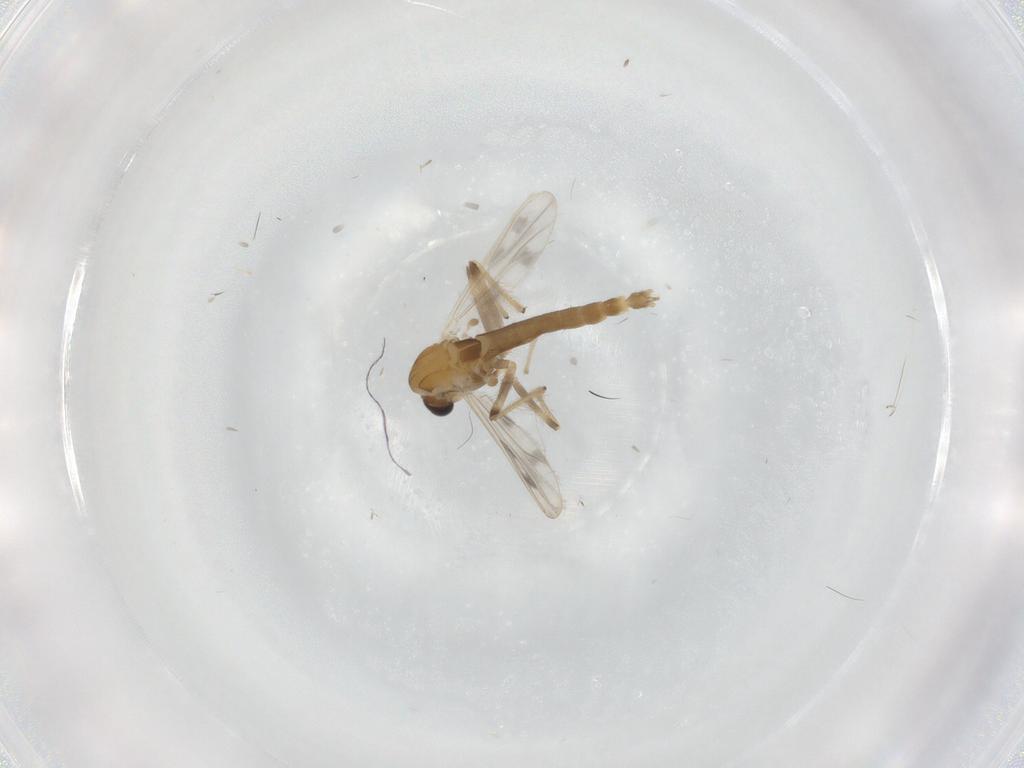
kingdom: Animalia
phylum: Arthropoda
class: Insecta
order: Diptera
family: Chironomidae
